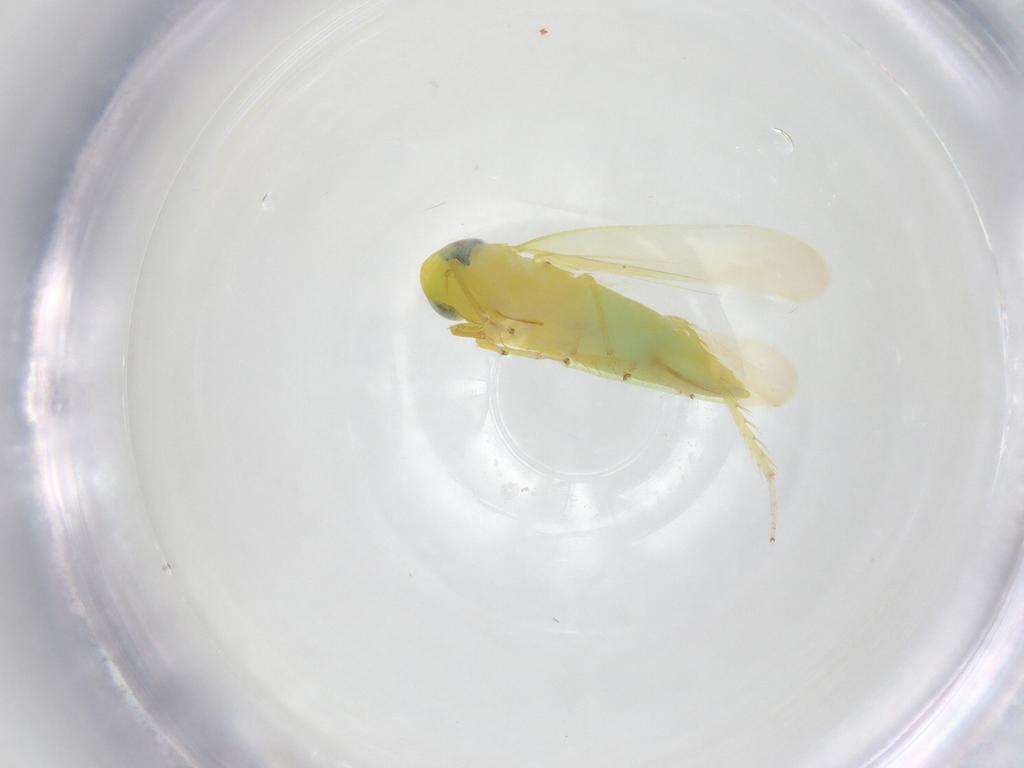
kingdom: Animalia
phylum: Arthropoda
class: Insecta
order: Hemiptera
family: Cicadellidae
